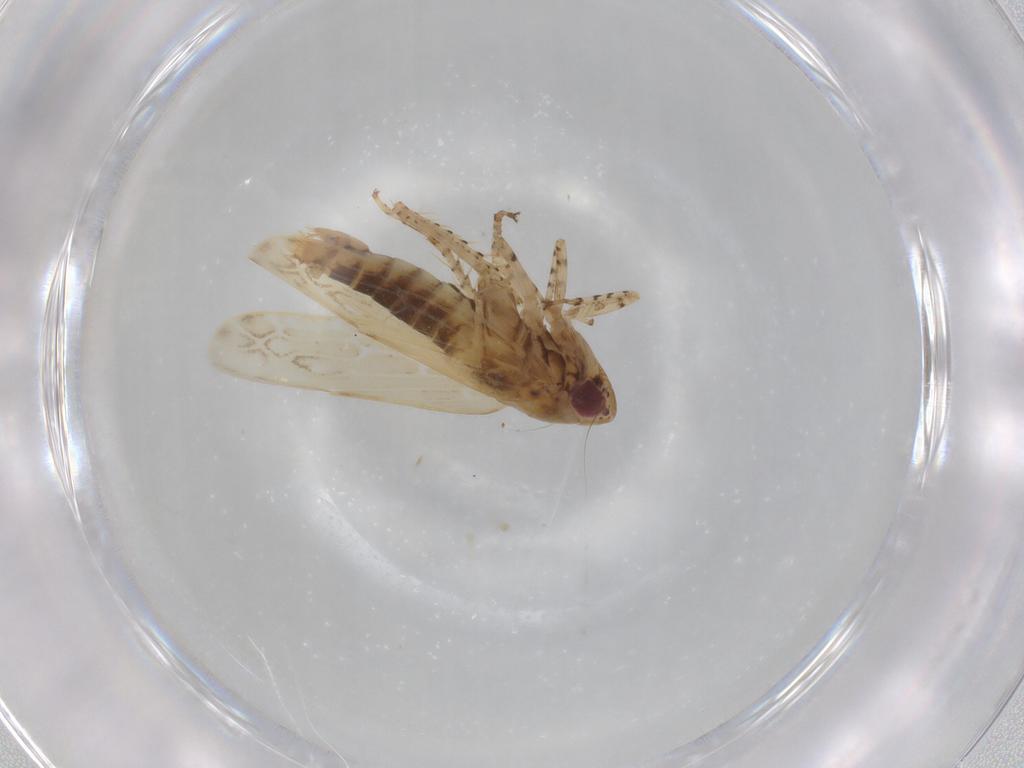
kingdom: Animalia
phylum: Arthropoda
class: Insecta
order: Hemiptera
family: Cicadellidae
